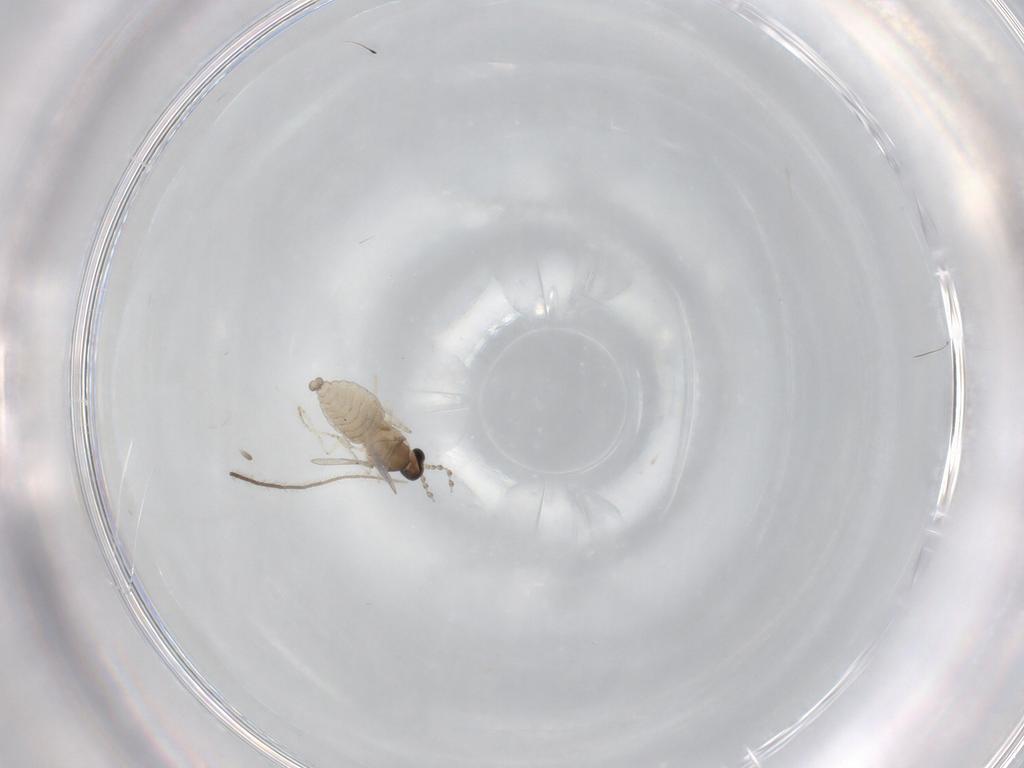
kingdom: Animalia
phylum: Arthropoda
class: Insecta
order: Diptera
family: Cecidomyiidae
